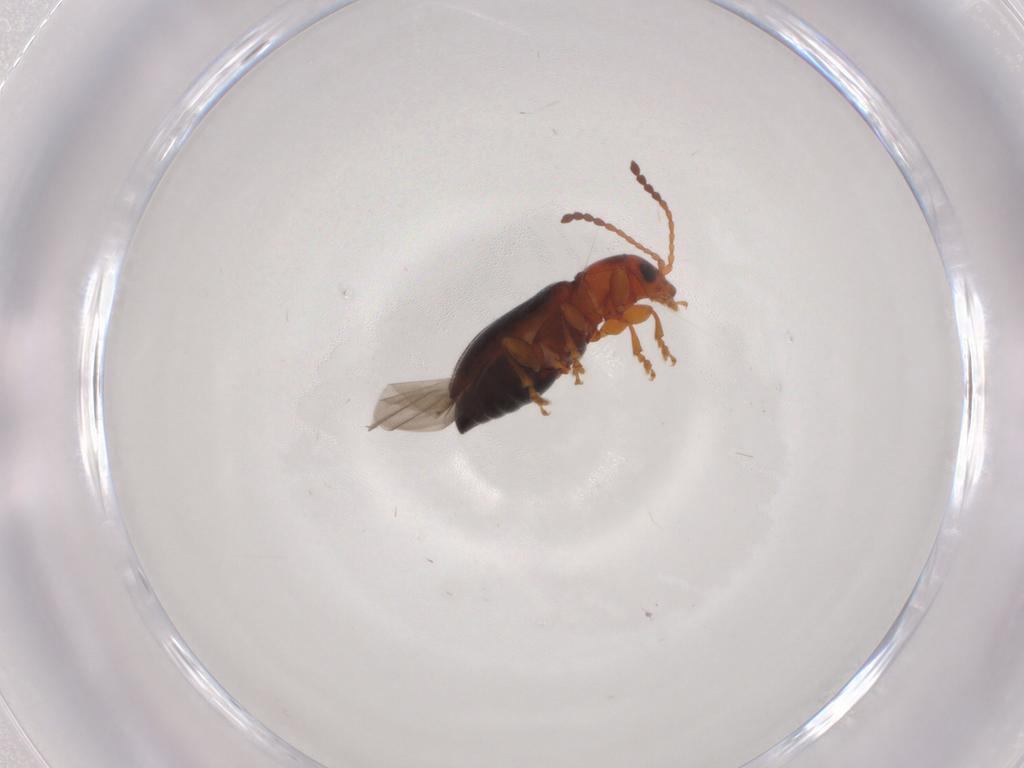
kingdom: Animalia
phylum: Arthropoda
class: Insecta
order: Coleoptera
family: Chrysomelidae
